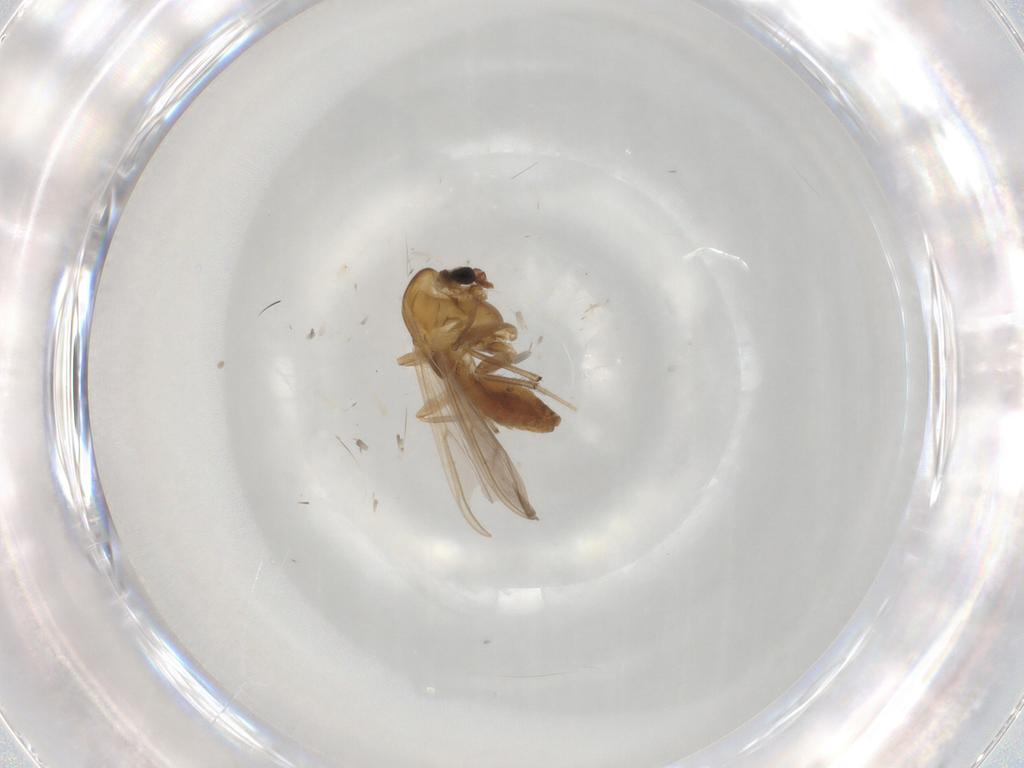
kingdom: Animalia
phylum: Arthropoda
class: Insecta
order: Diptera
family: Chironomidae
